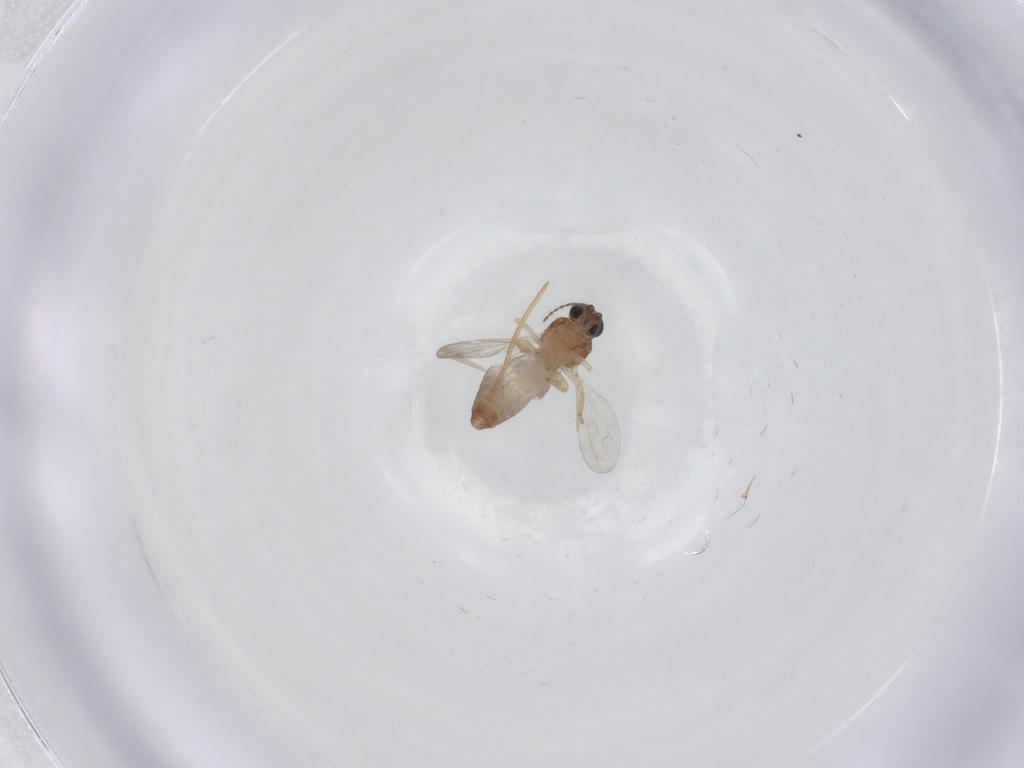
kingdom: Animalia
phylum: Arthropoda
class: Insecta
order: Diptera
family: Ceratopogonidae
